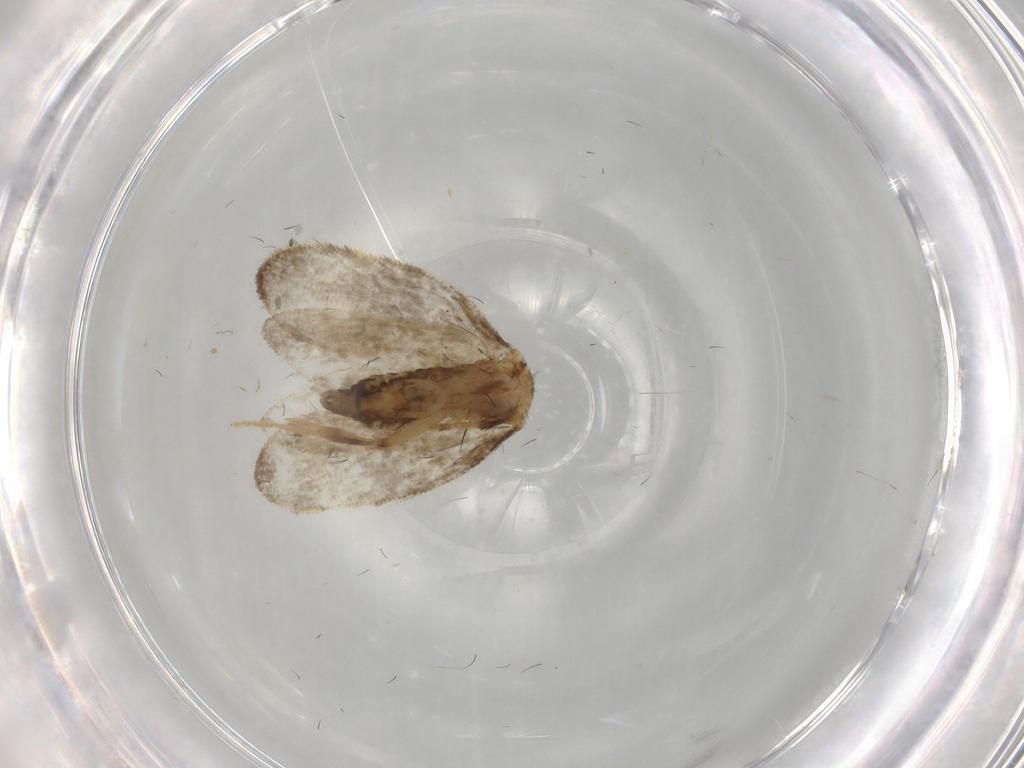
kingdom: Animalia
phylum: Arthropoda
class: Insecta
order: Lepidoptera
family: Psychidae
